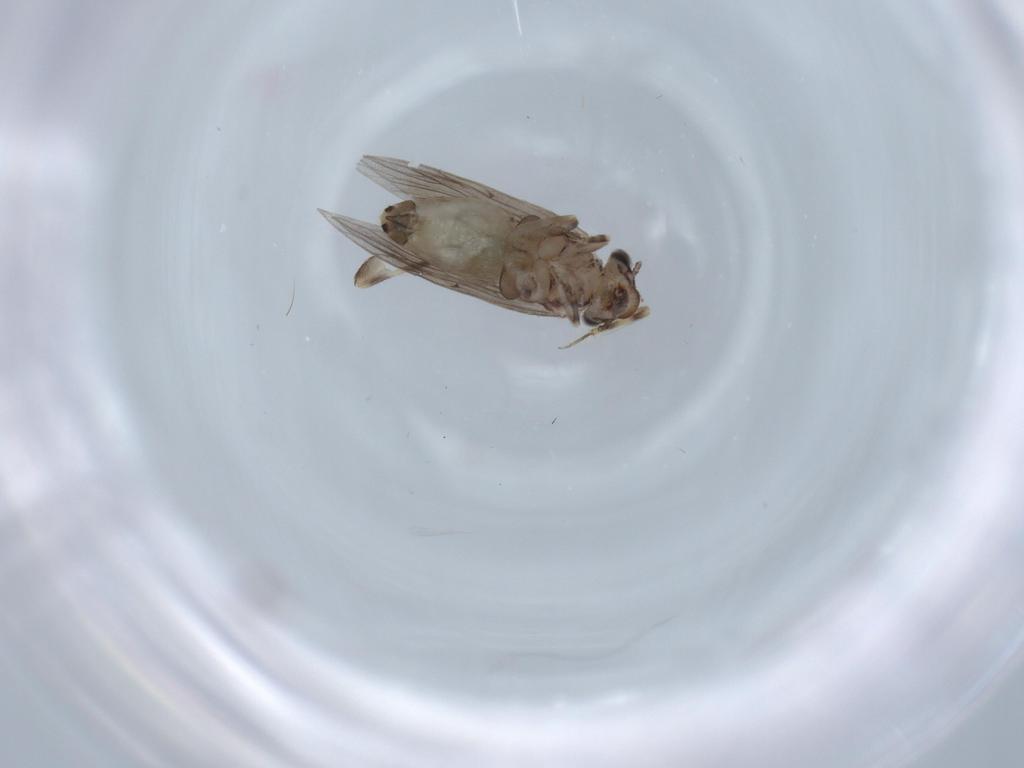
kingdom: Animalia
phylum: Arthropoda
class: Insecta
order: Psocodea
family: Lepidopsocidae
